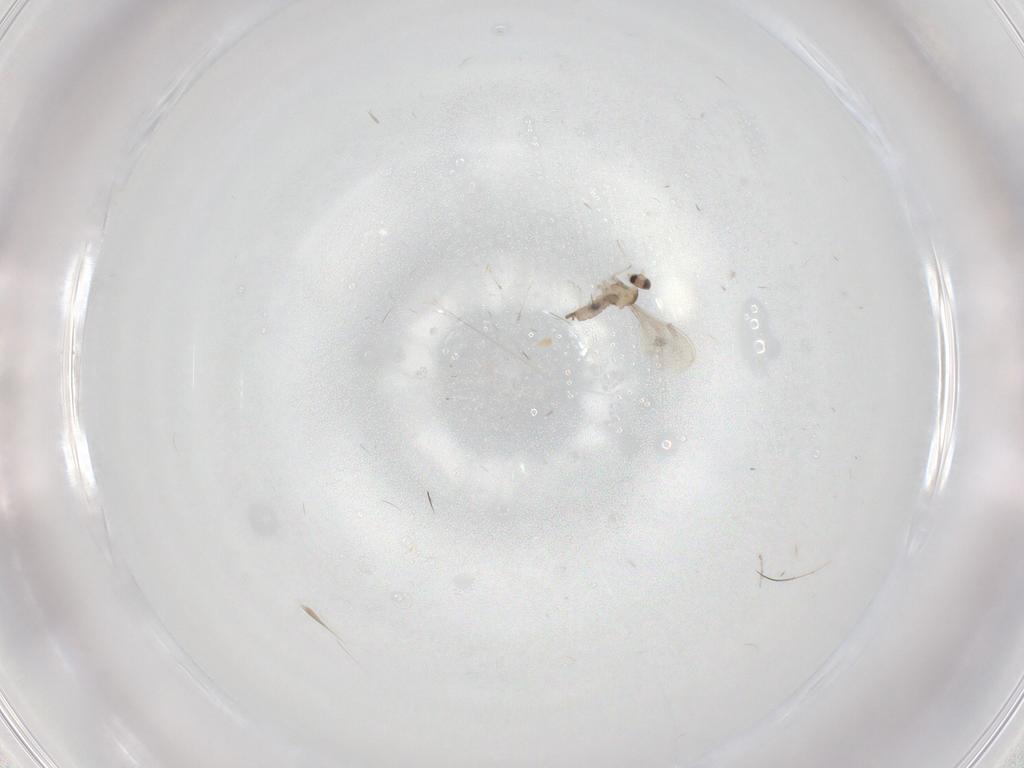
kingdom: Animalia
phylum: Arthropoda
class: Insecta
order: Diptera
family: Cecidomyiidae
